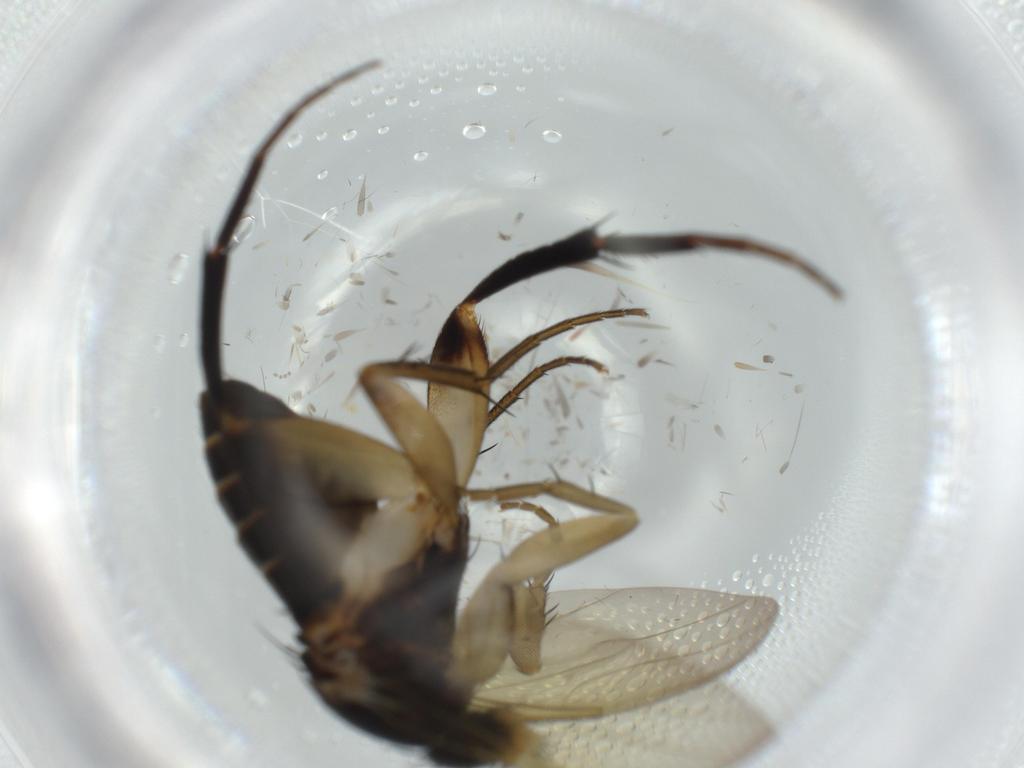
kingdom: Animalia
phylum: Arthropoda
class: Insecta
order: Diptera
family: Phoridae
